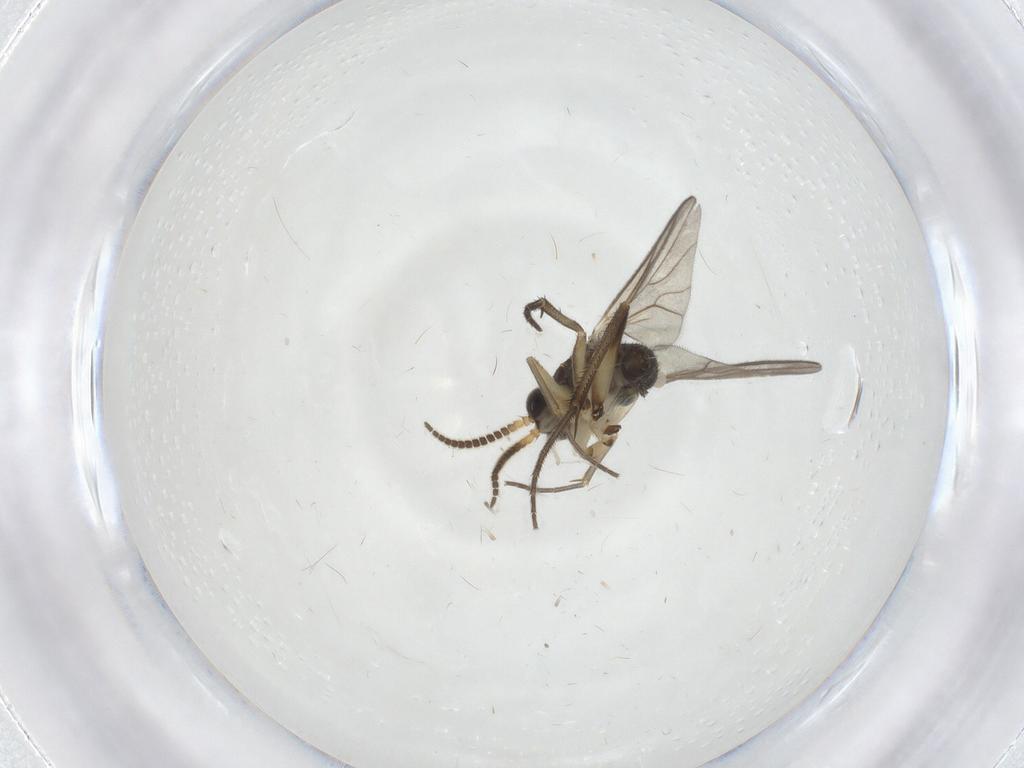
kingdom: Animalia
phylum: Arthropoda
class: Insecta
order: Diptera
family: Mycetophilidae
